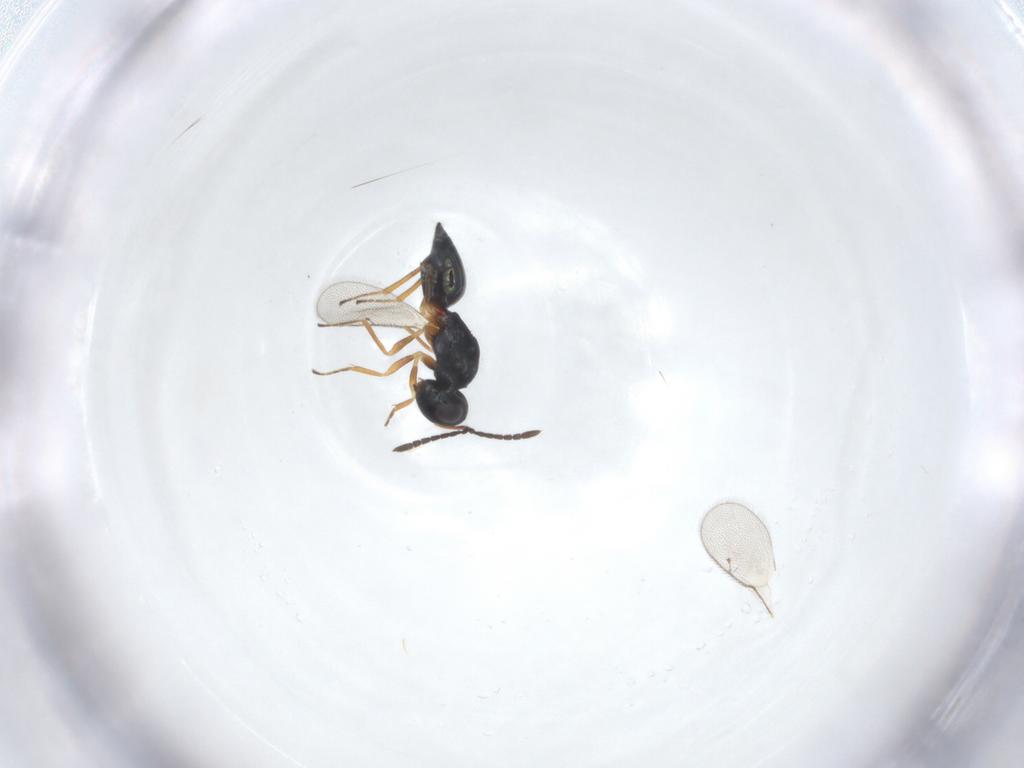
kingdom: Animalia
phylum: Arthropoda
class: Insecta
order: Hymenoptera
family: Pteromalidae
